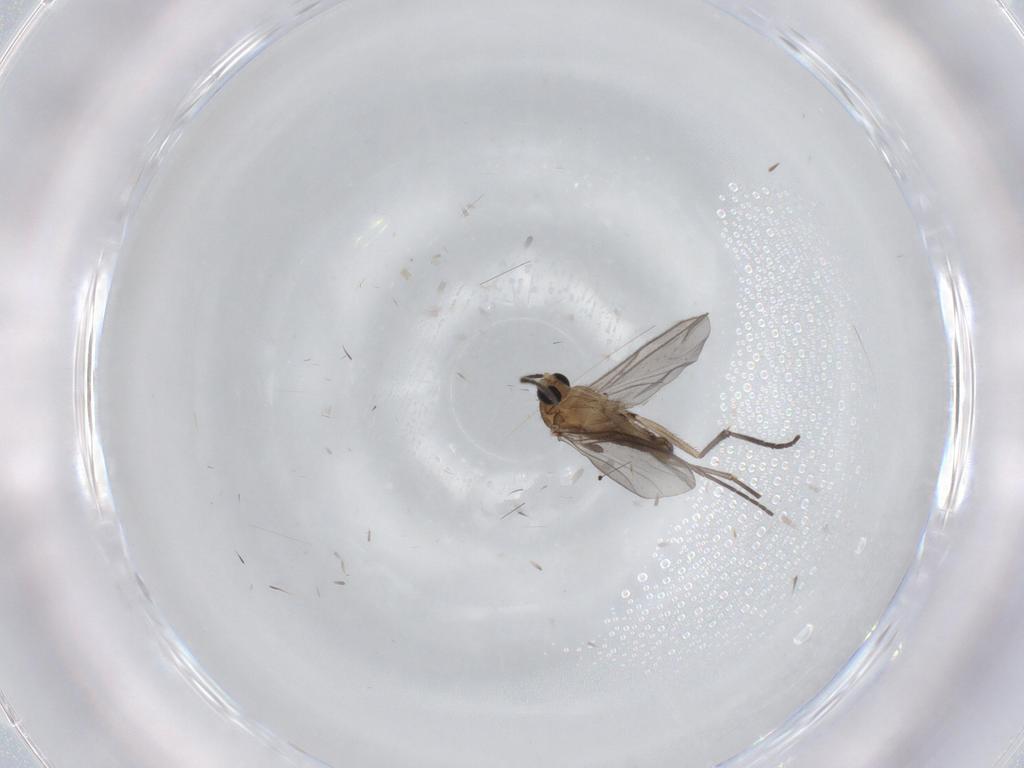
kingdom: Animalia
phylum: Arthropoda
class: Insecta
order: Diptera
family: Sciaridae
